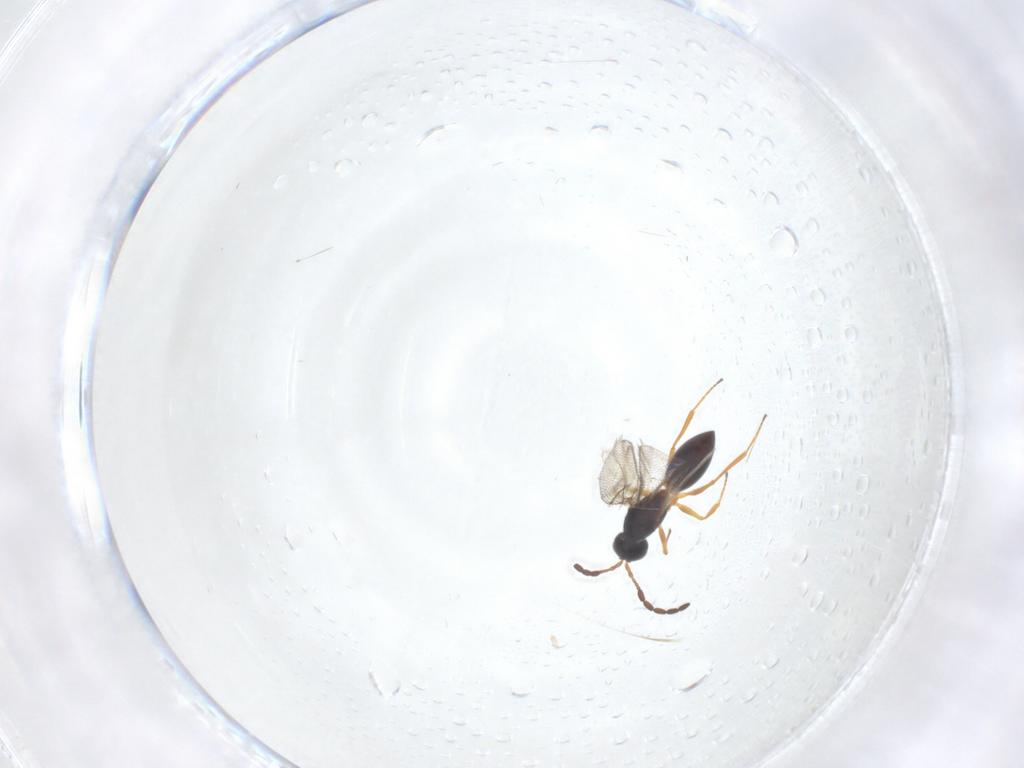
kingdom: Animalia
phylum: Arthropoda
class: Insecta
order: Hymenoptera
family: Figitidae
